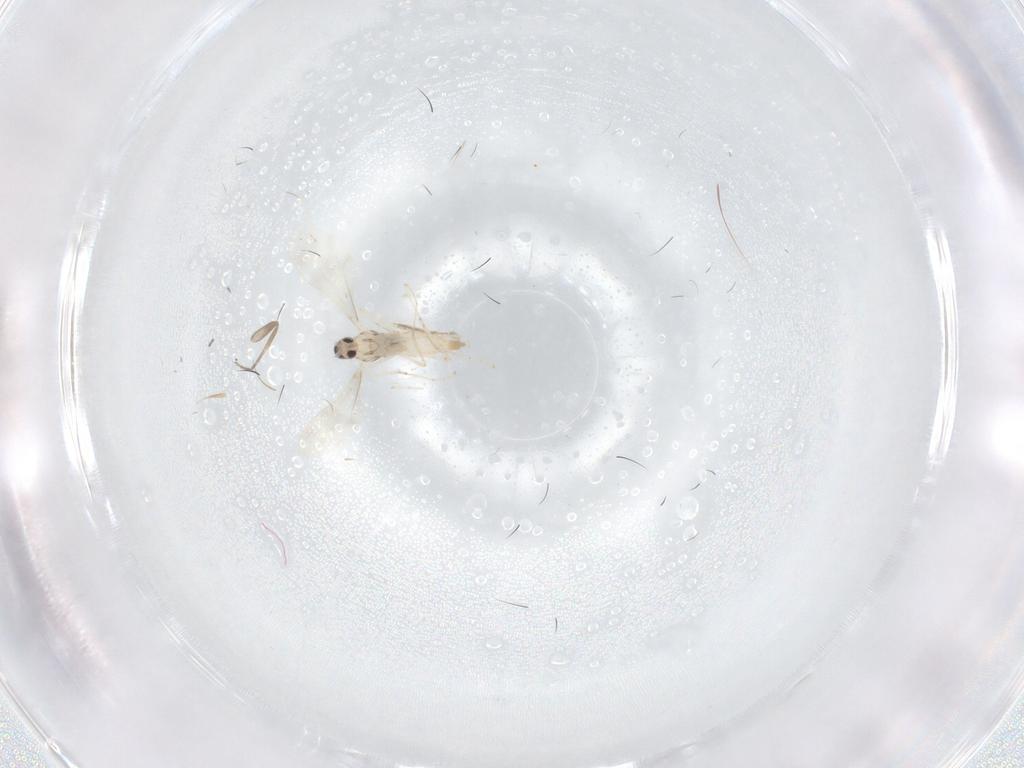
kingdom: Animalia
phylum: Arthropoda
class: Insecta
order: Diptera
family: Cecidomyiidae
